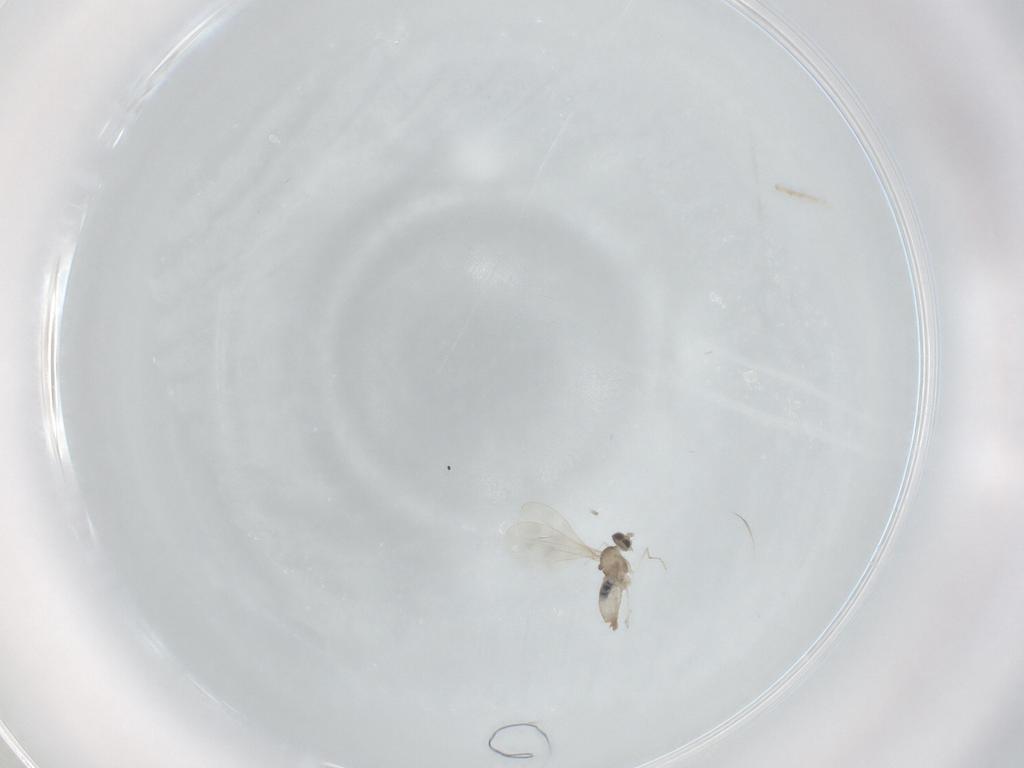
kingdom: Animalia
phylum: Arthropoda
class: Insecta
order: Diptera
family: Cecidomyiidae
